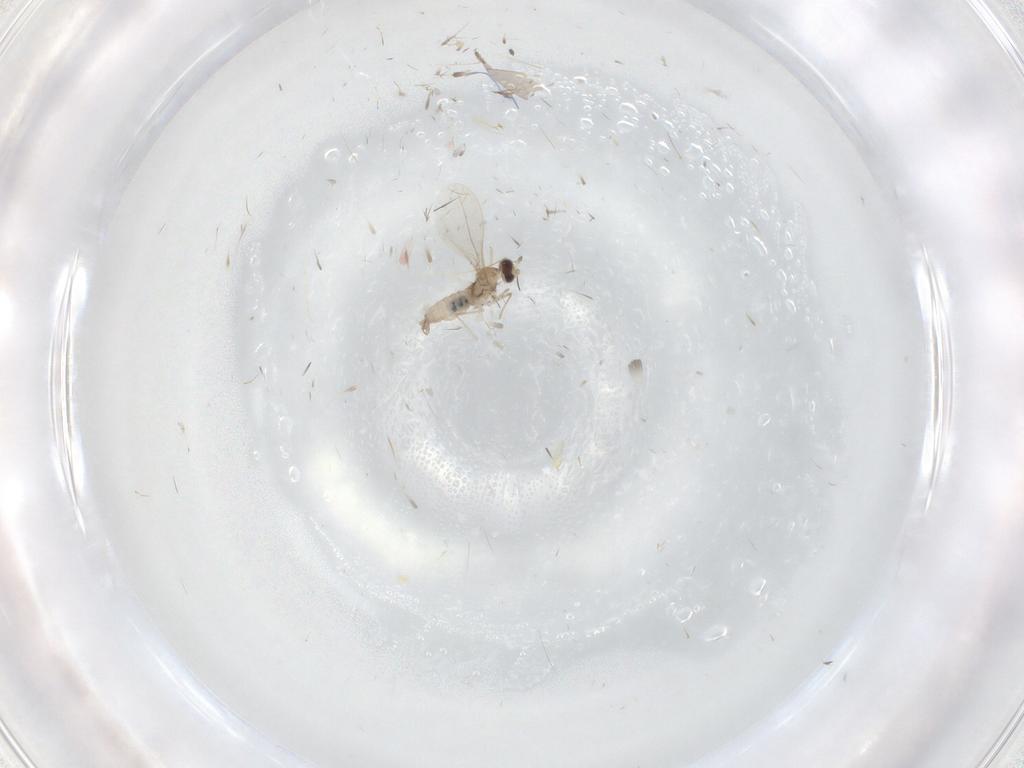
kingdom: Animalia
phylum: Arthropoda
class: Insecta
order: Diptera
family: Cecidomyiidae
